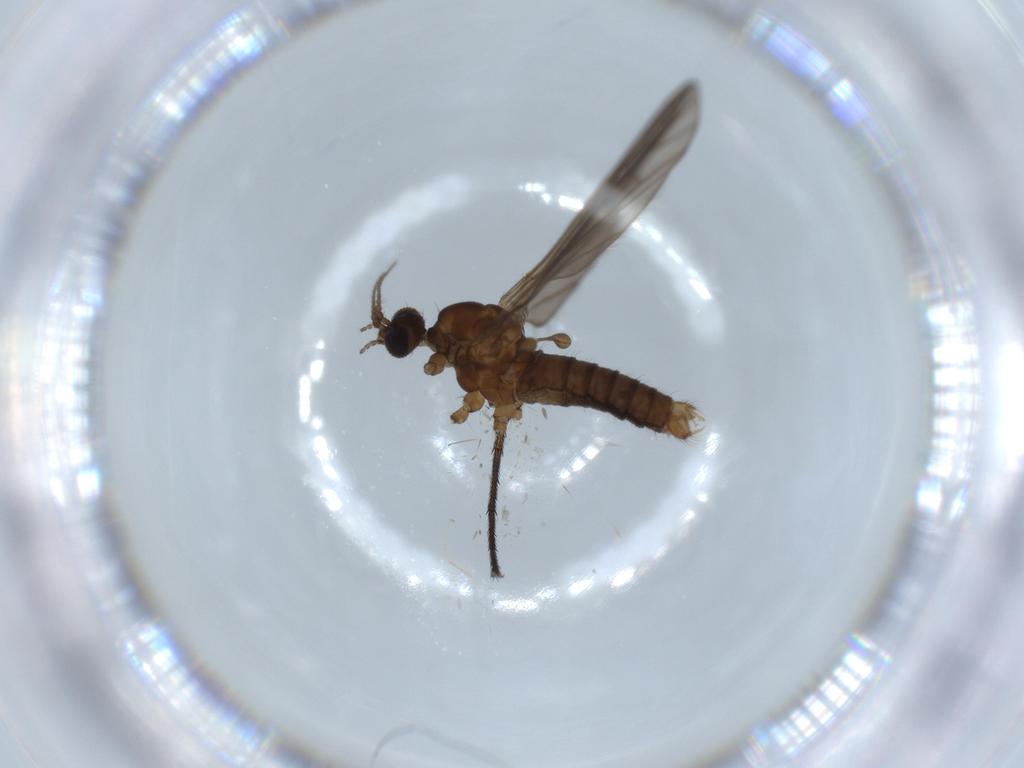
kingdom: Animalia
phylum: Arthropoda
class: Insecta
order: Diptera
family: Limoniidae
